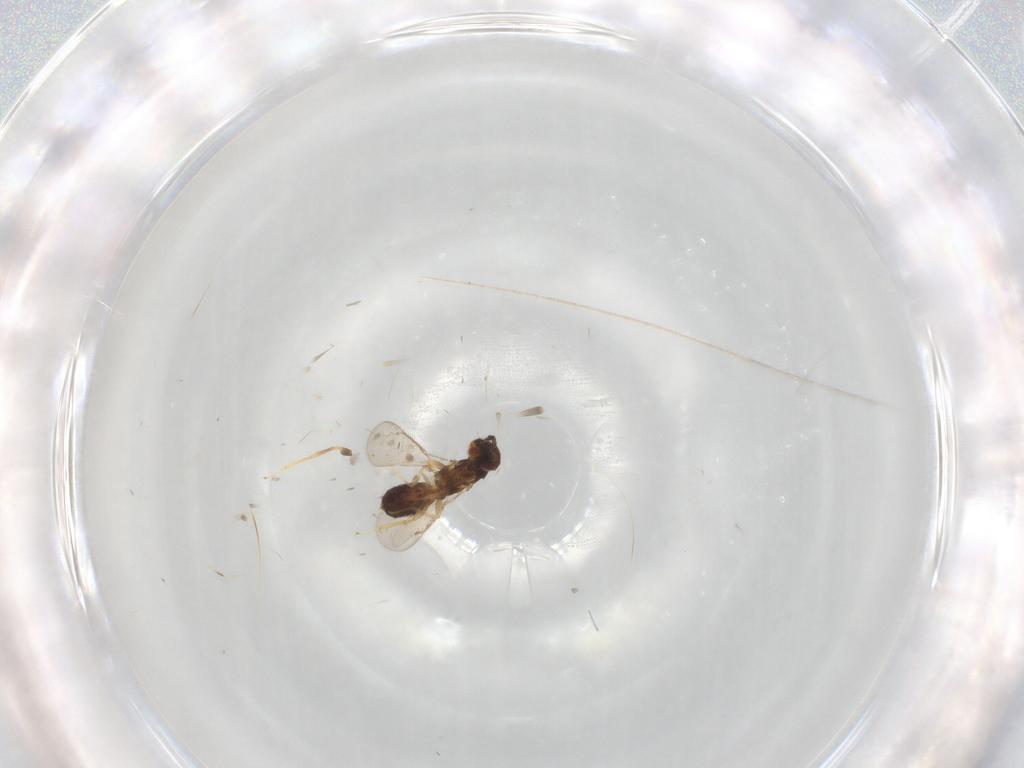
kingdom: Animalia
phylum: Arthropoda
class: Insecta
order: Hymenoptera
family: Eulophidae
